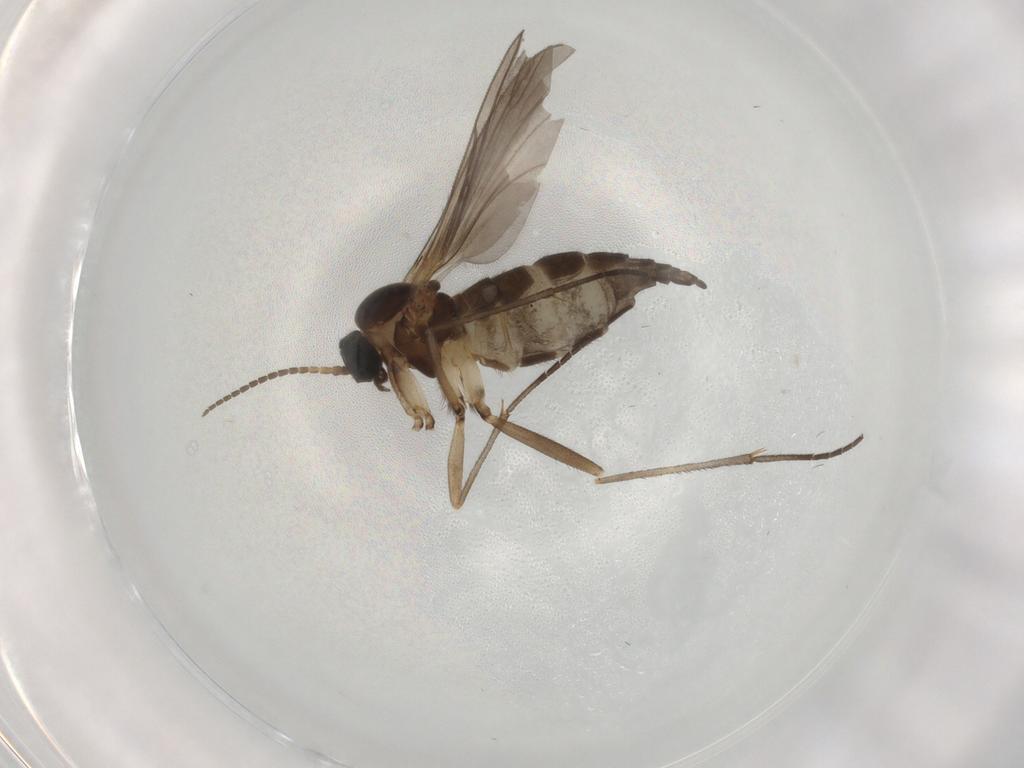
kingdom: Animalia
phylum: Arthropoda
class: Insecta
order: Diptera
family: Sciaridae
